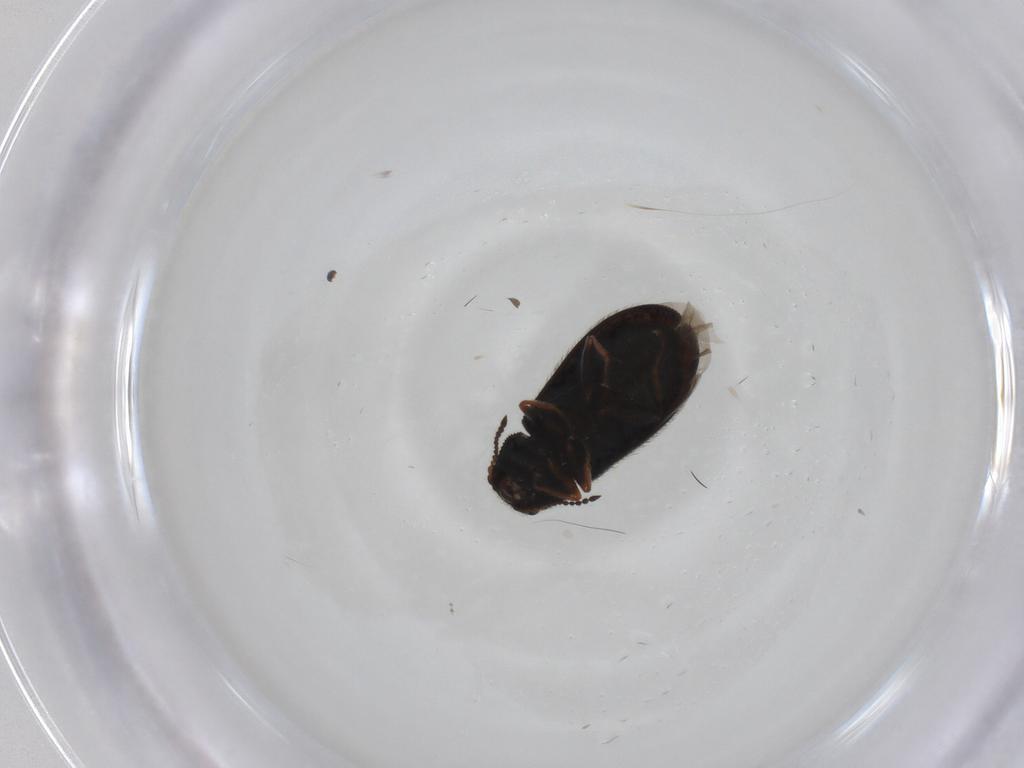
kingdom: Animalia
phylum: Arthropoda
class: Insecta
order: Coleoptera
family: Melyridae
